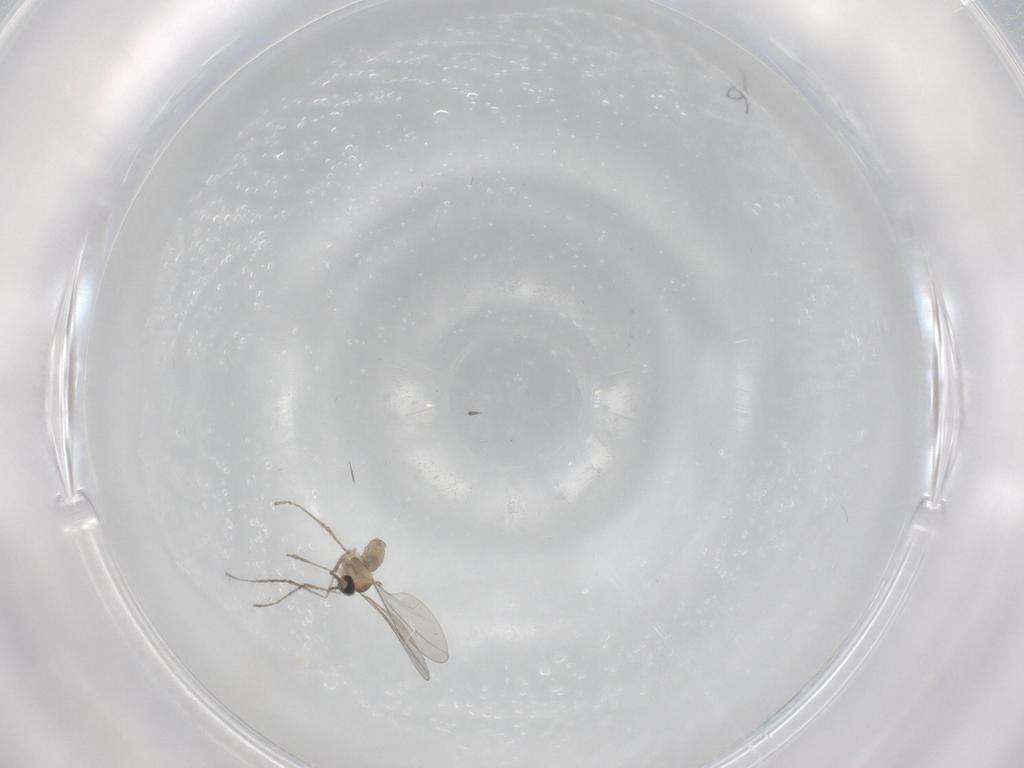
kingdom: Animalia
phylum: Arthropoda
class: Insecta
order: Diptera
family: Cecidomyiidae
